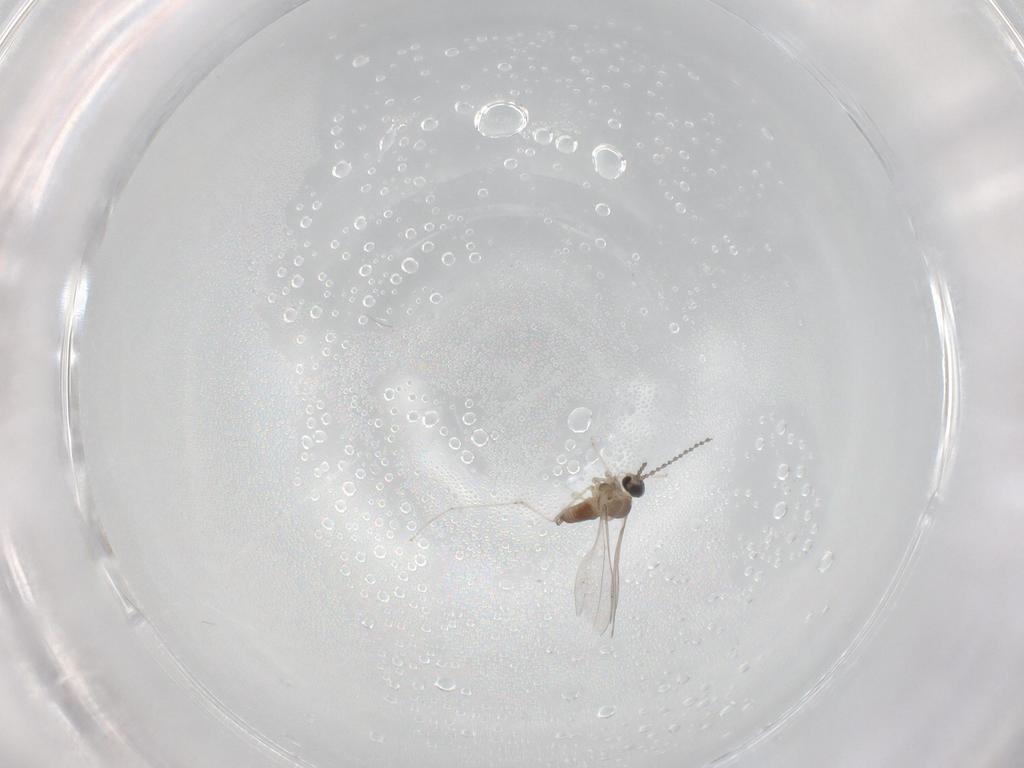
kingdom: Animalia
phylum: Arthropoda
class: Insecta
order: Diptera
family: Cecidomyiidae
